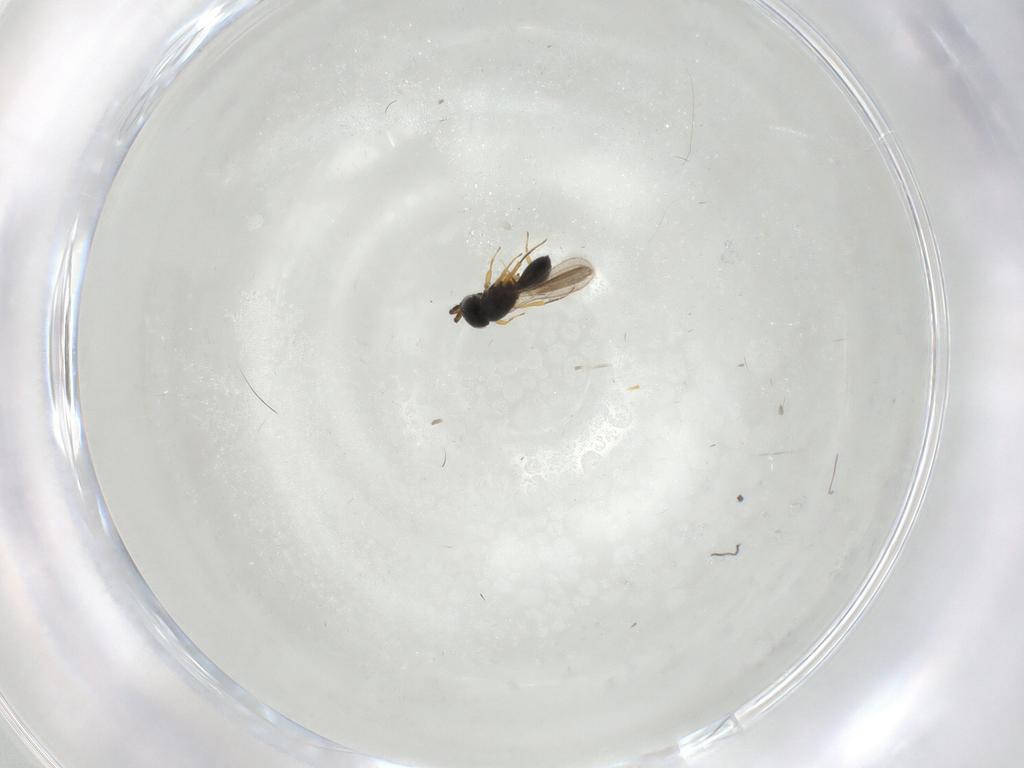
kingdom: Animalia
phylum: Arthropoda
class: Insecta
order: Hymenoptera
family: Scelionidae
